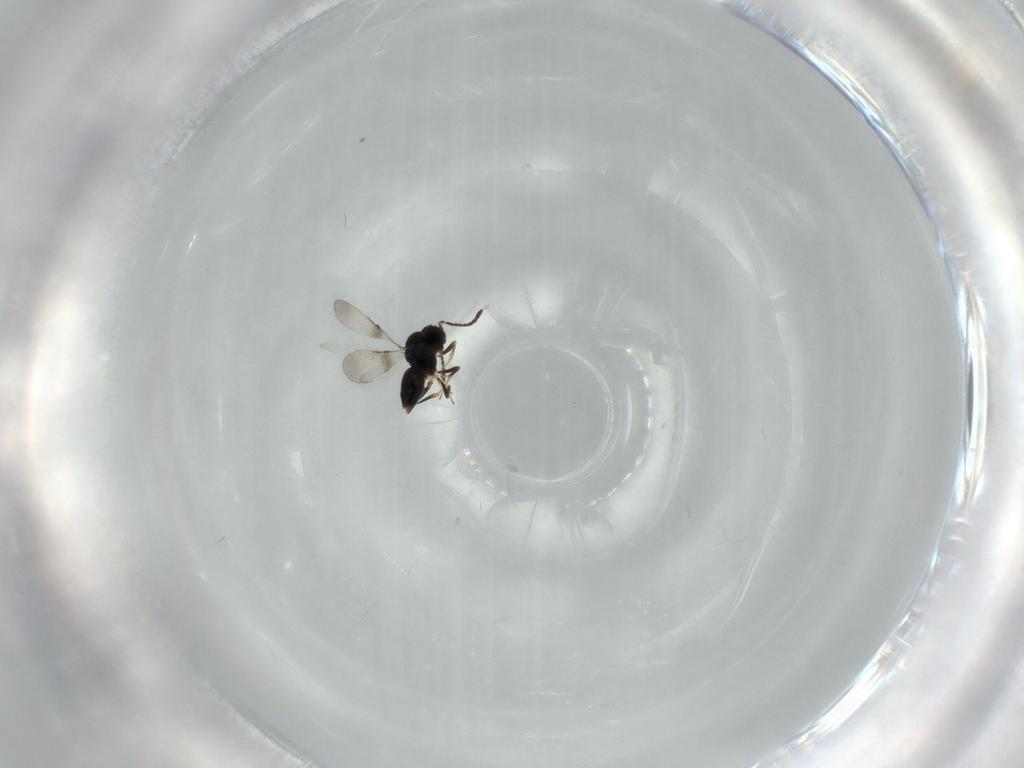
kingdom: Animalia
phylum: Arthropoda
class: Insecta
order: Hymenoptera
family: Vespidae
